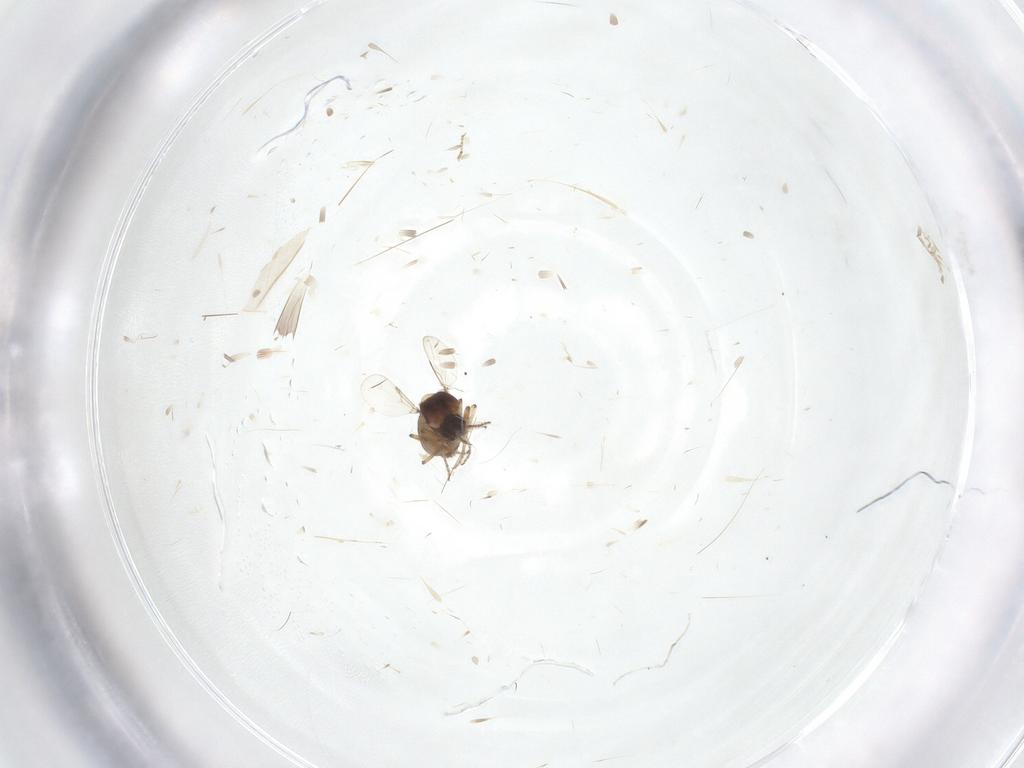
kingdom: Animalia
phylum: Arthropoda
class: Insecta
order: Diptera
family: Ceratopogonidae
